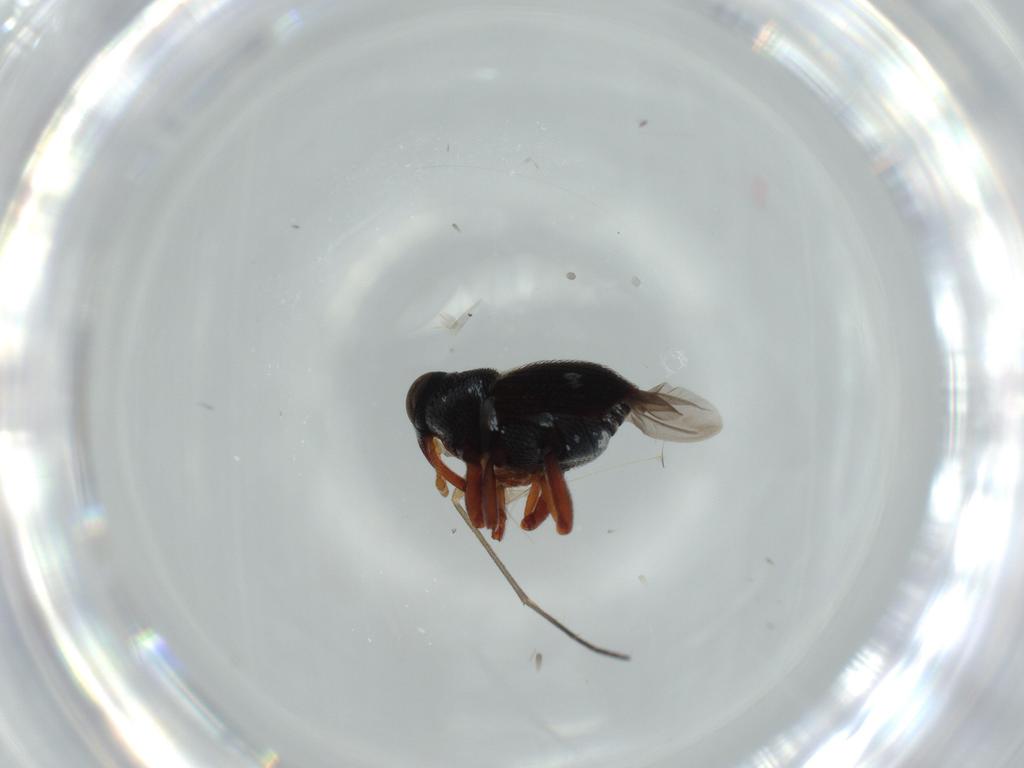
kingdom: Animalia
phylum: Arthropoda
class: Insecta
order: Coleoptera
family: Curculionidae
